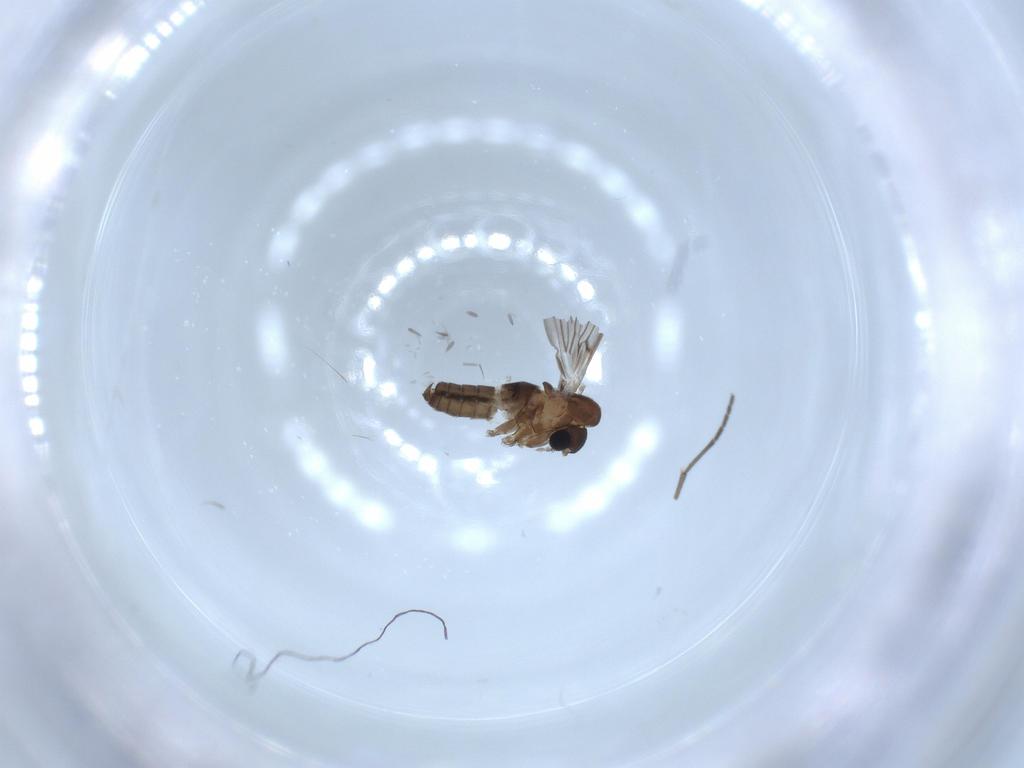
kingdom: Animalia
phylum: Arthropoda
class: Insecta
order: Diptera
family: Psychodidae
